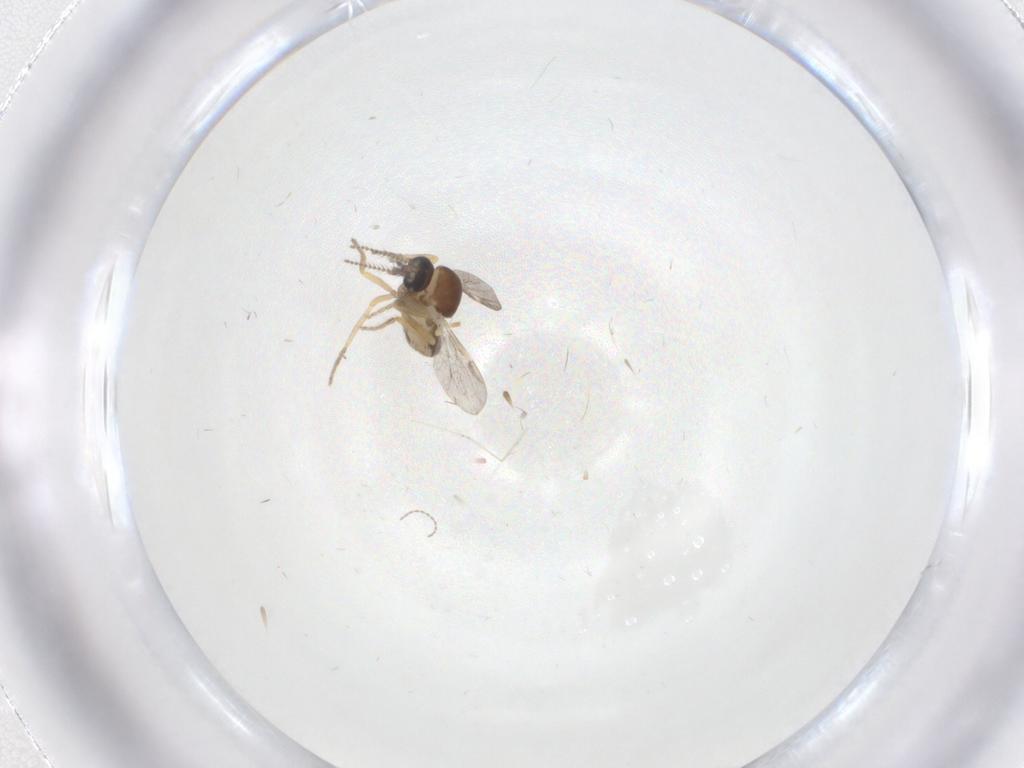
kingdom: Animalia
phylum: Arthropoda
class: Insecta
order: Diptera
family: Ceratopogonidae
